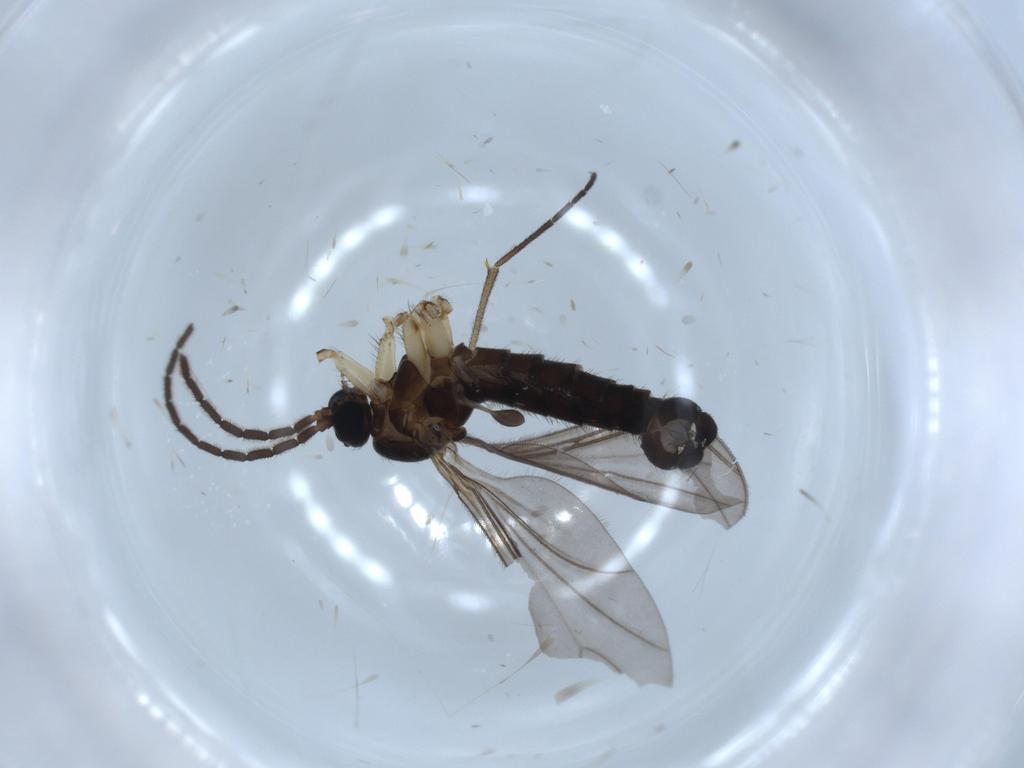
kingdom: Animalia
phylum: Arthropoda
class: Insecta
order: Diptera
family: Sciaridae
